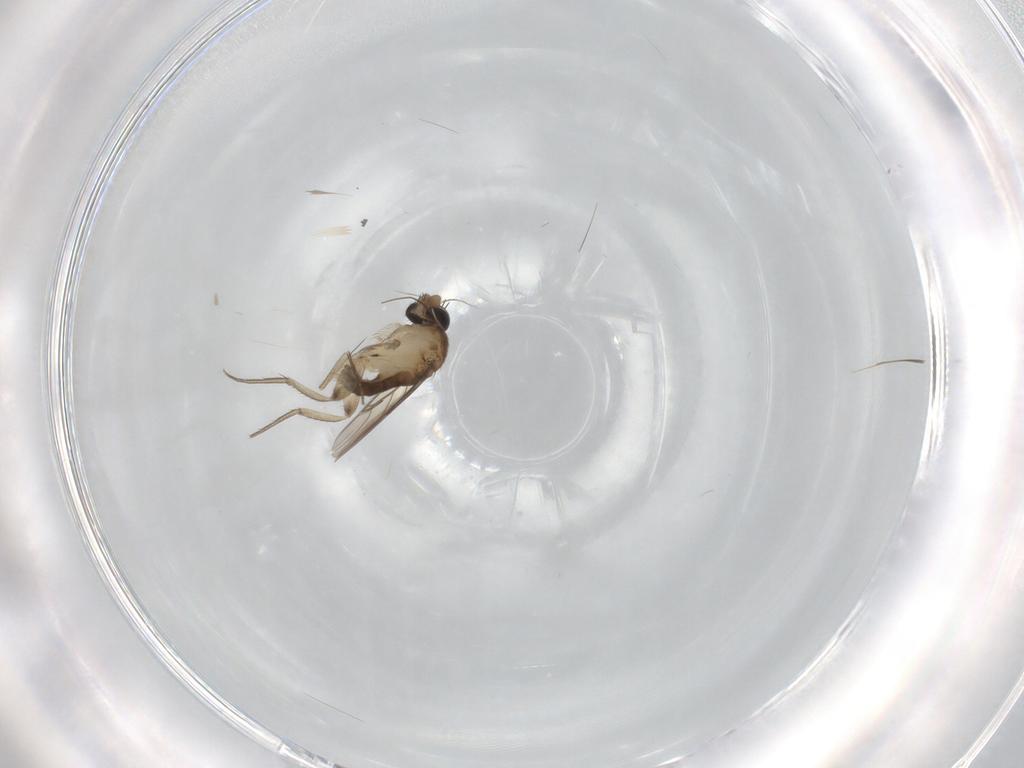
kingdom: Animalia
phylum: Arthropoda
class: Insecta
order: Diptera
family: Phoridae
